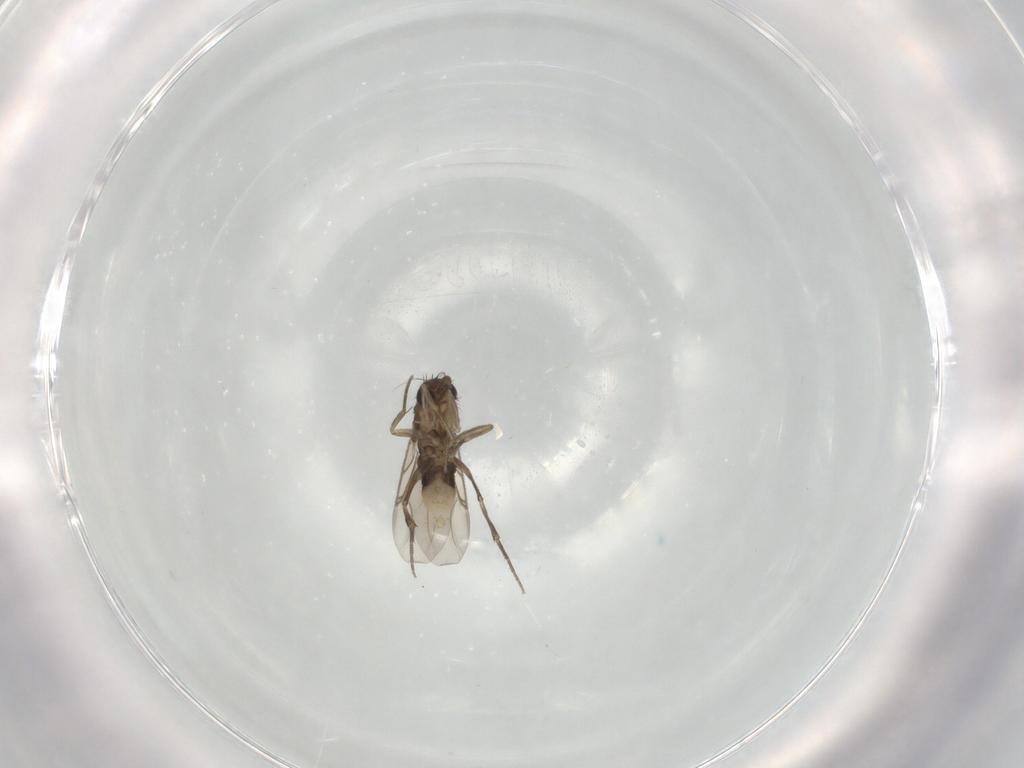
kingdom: Animalia
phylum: Arthropoda
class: Insecta
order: Diptera
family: Phoridae
